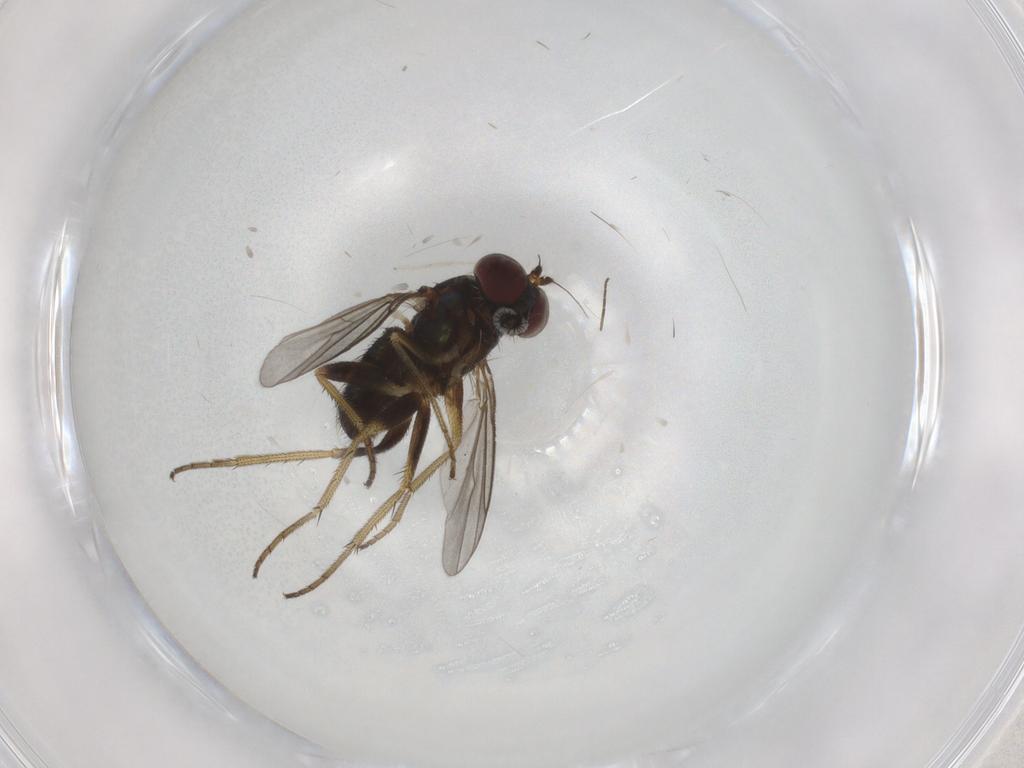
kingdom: Animalia
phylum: Arthropoda
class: Insecta
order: Diptera
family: Chironomidae
